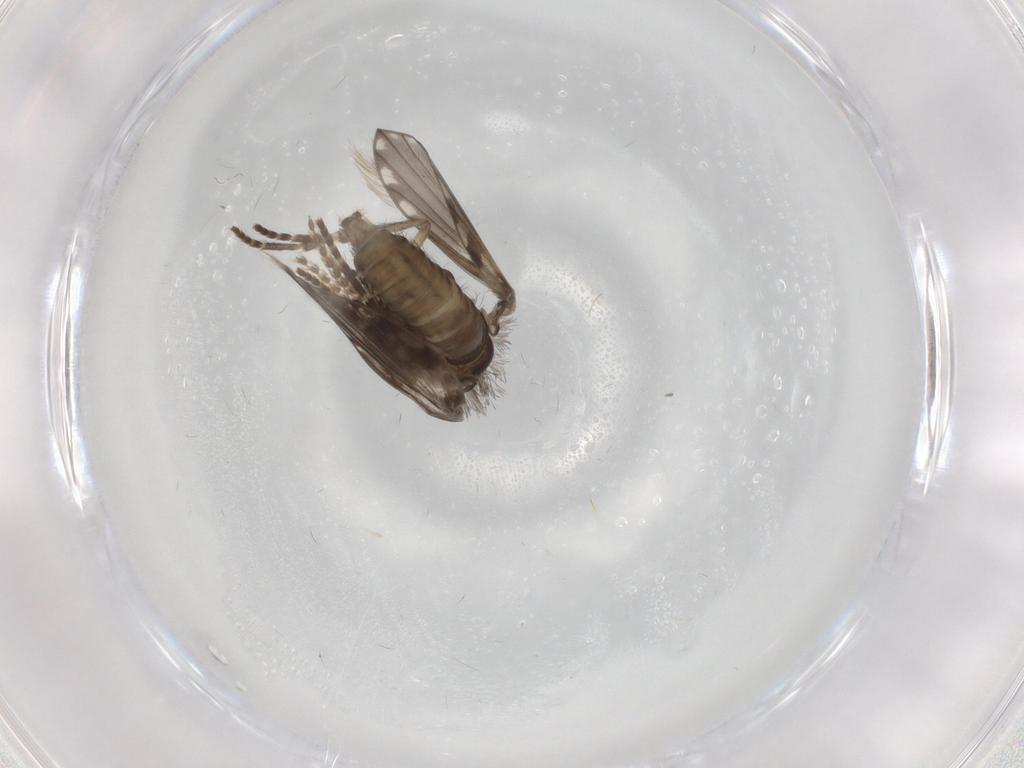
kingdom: Animalia
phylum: Arthropoda
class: Insecta
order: Diptera
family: Psychodidae
